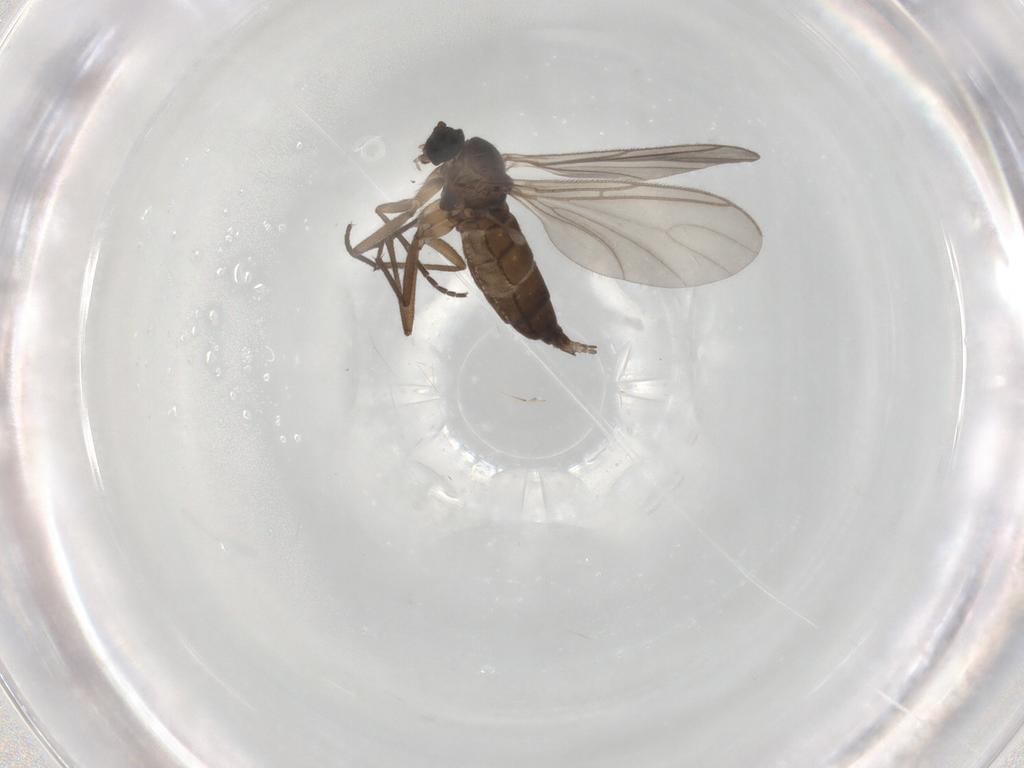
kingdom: Animalia
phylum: Arthropoda
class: Insecta
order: Diptera
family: Sciaridae
